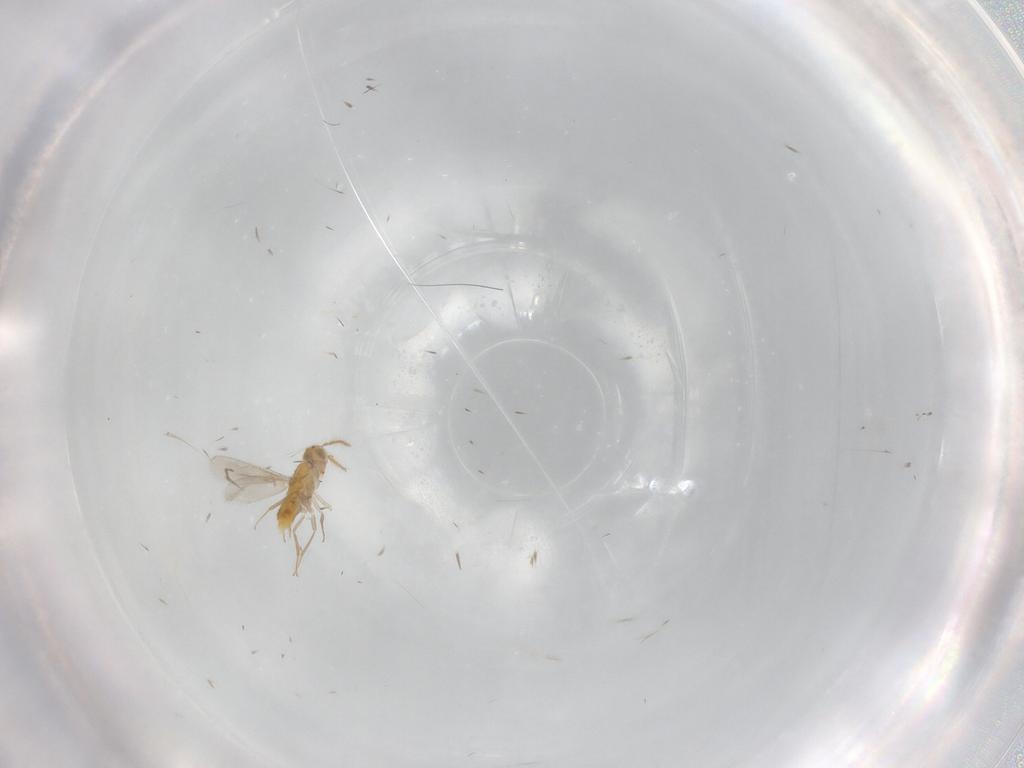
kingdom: Animalia
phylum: Arthropoda
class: Insecta
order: Hymenoptera
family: Aphelinidae
